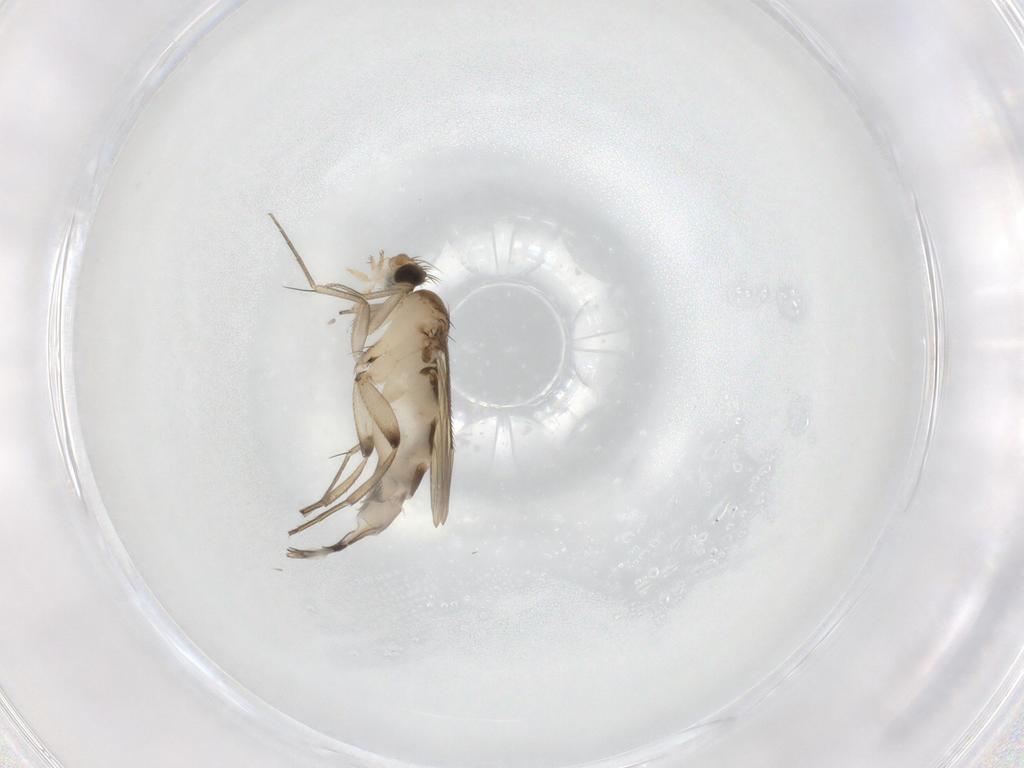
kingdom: Animalia
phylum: Arthropoda
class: Insecta
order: Diptera
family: Phoridae
